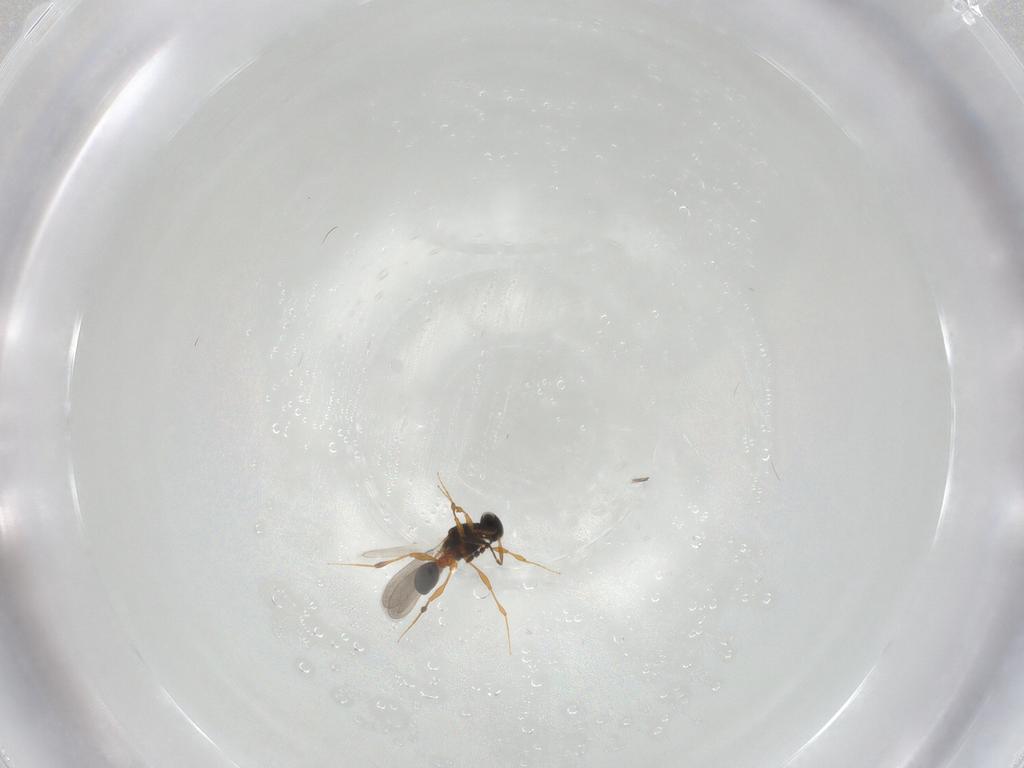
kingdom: Animalia
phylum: Arthropoda
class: Insecta
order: Hymenoptera
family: Platygastridae
